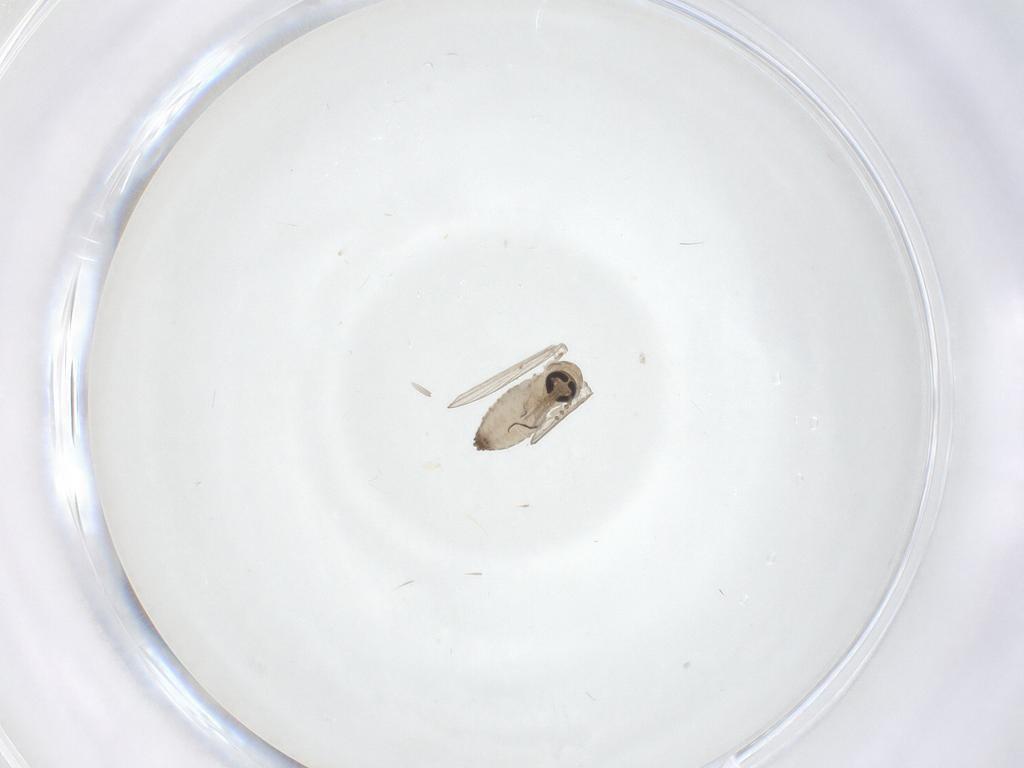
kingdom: Animalia
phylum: Arthropoda
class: Insecta
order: Diptera
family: Psychodidae
